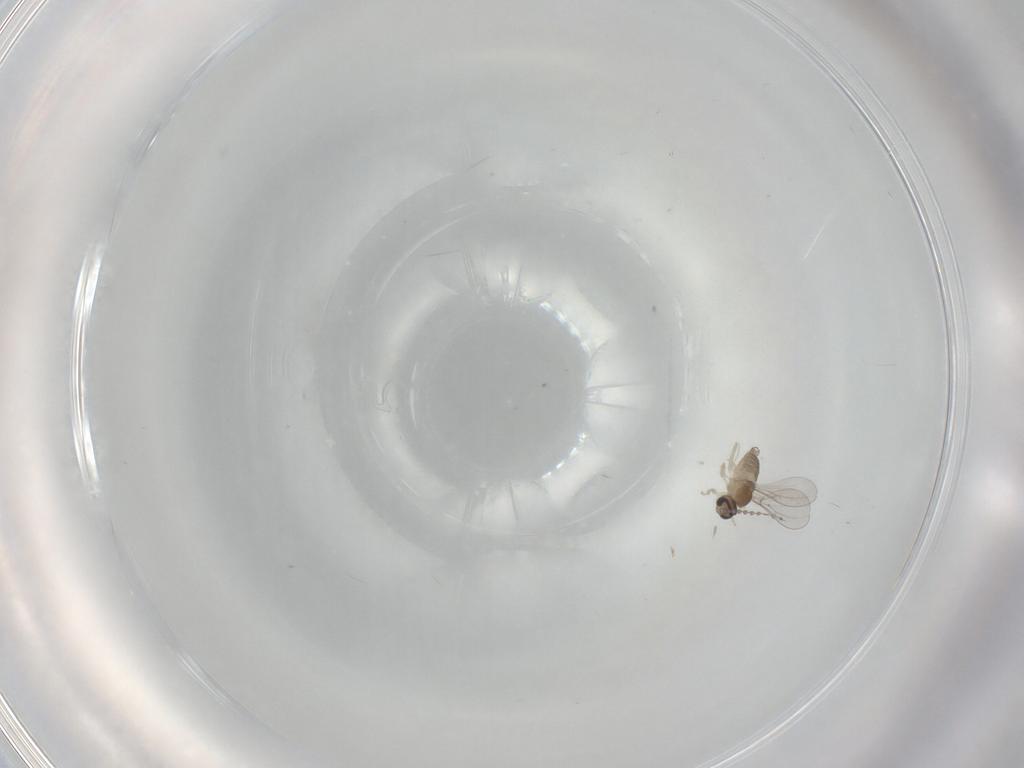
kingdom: Animalia
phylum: Arthropoda
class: Insecta
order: Diptera
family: Cecidomyiidae
